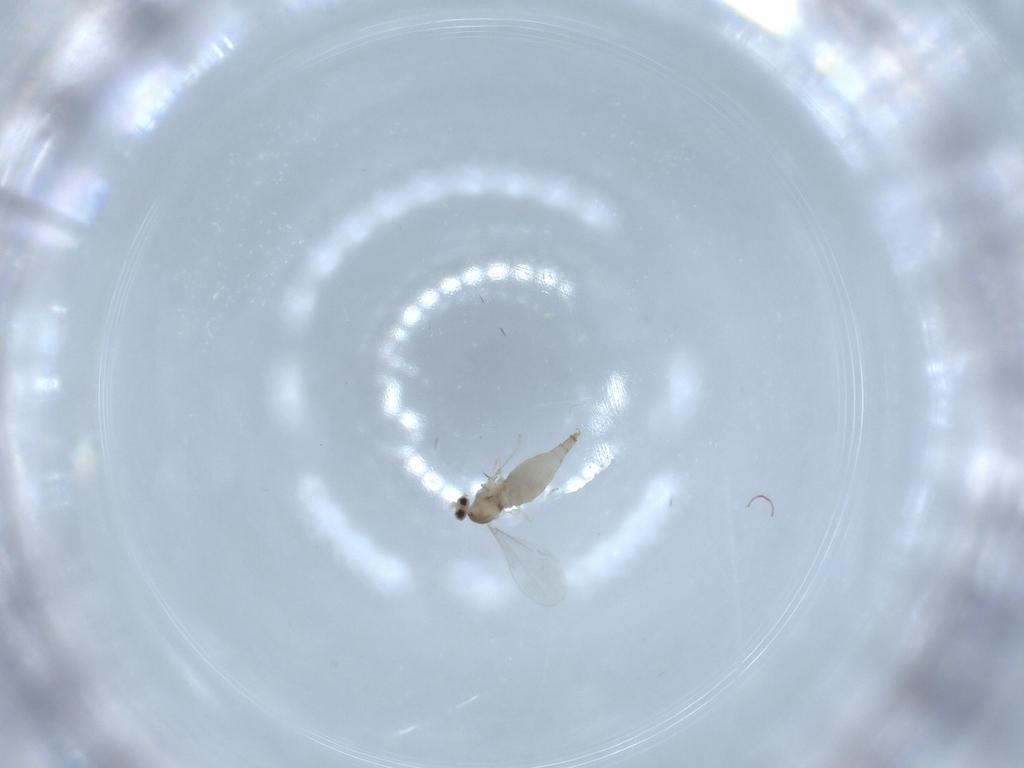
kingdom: Animalia
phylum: Arthropoda
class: Insecta
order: Diptera
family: Cecidomyiidae
